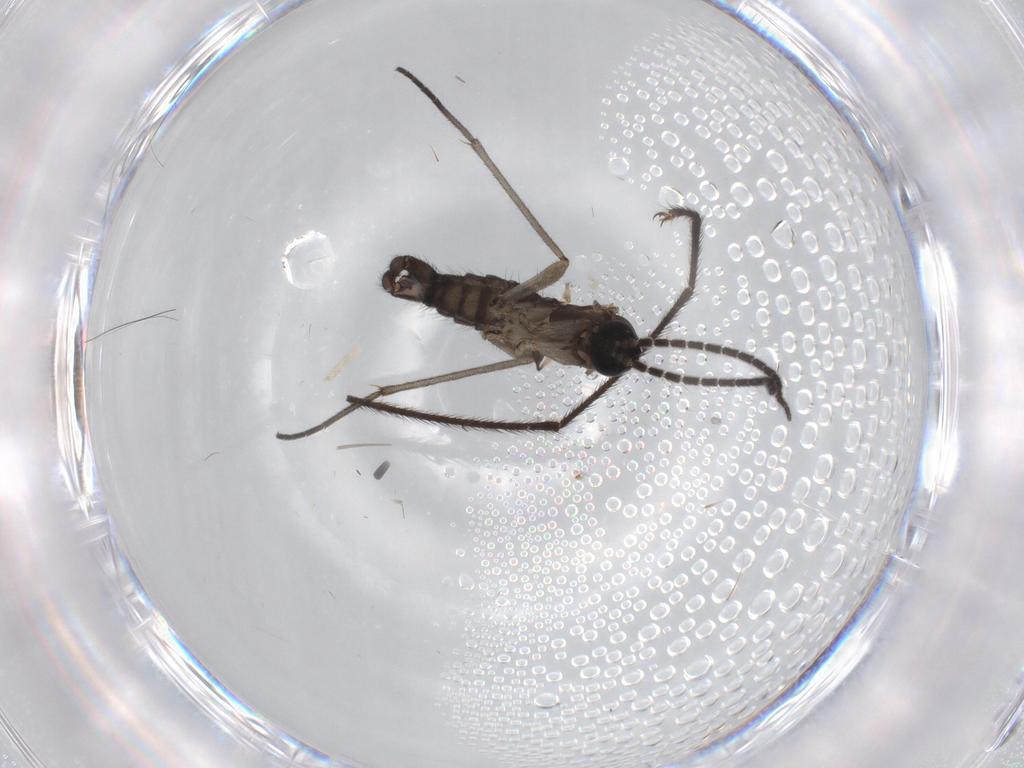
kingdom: Animalia
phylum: Arthropoda
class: Insecta
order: Diptera
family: Sciaridae
